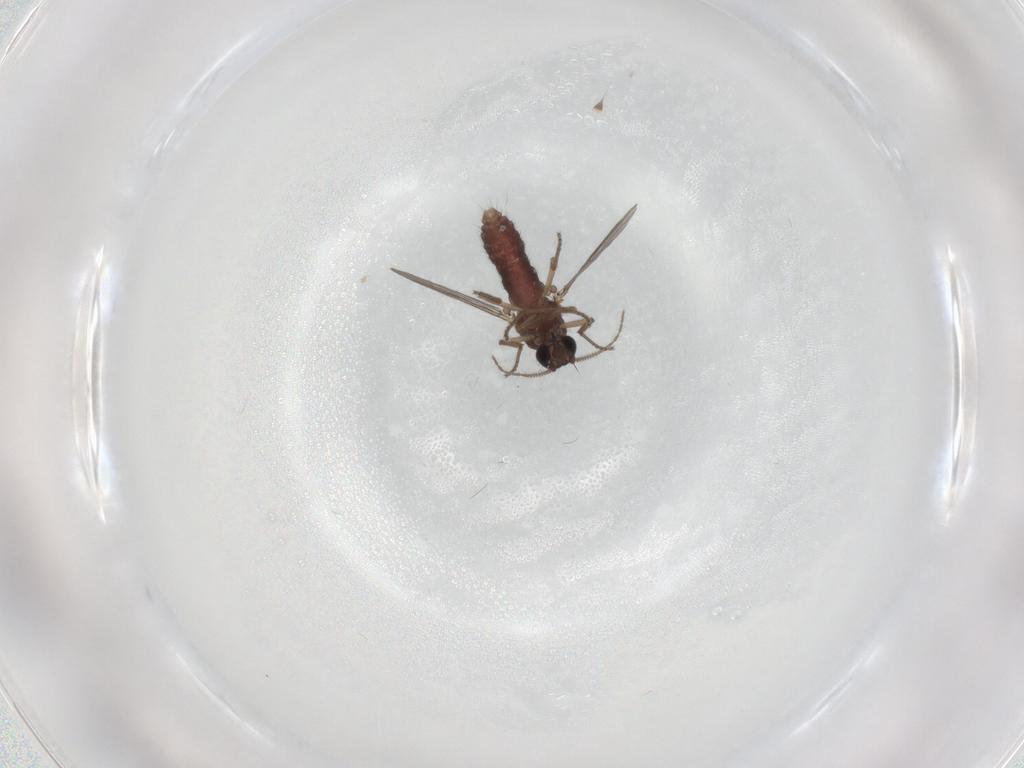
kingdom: Animalia
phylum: Arthropoda
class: Insecta
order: Diptera
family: Ceratopogonidae
